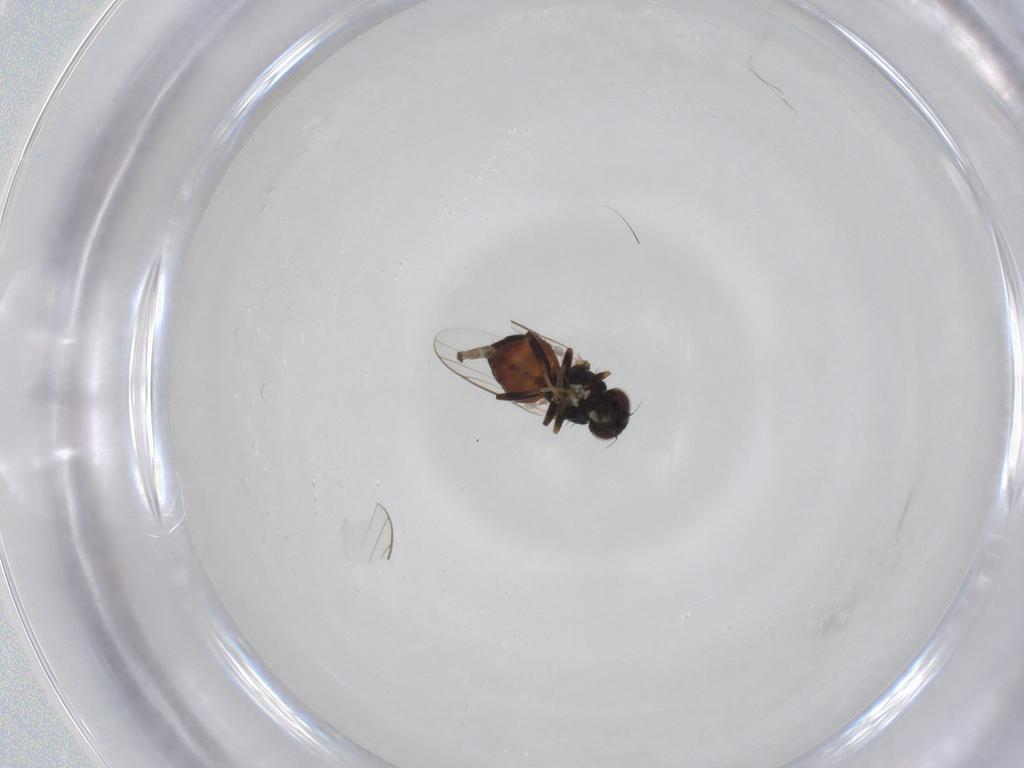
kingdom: Animalia
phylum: Arthropoda
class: Insecta
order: Diptera
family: Chloropidae
